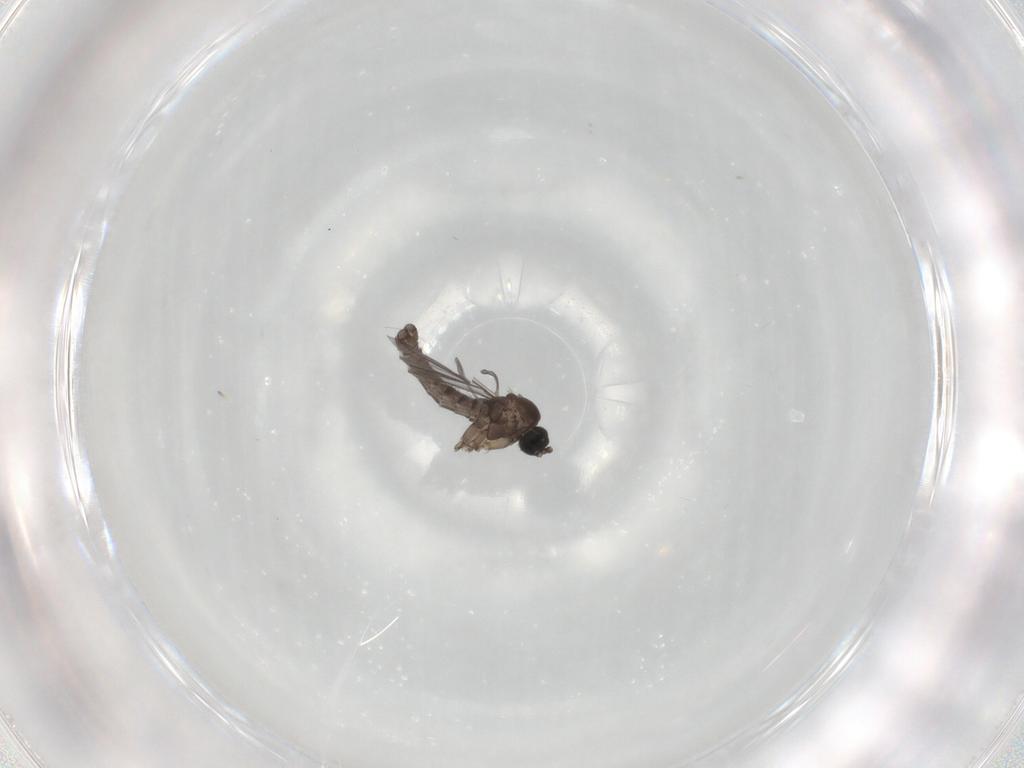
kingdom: Animalia
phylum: Arthropoda
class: Insecta
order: Diptera
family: Sciaridae
